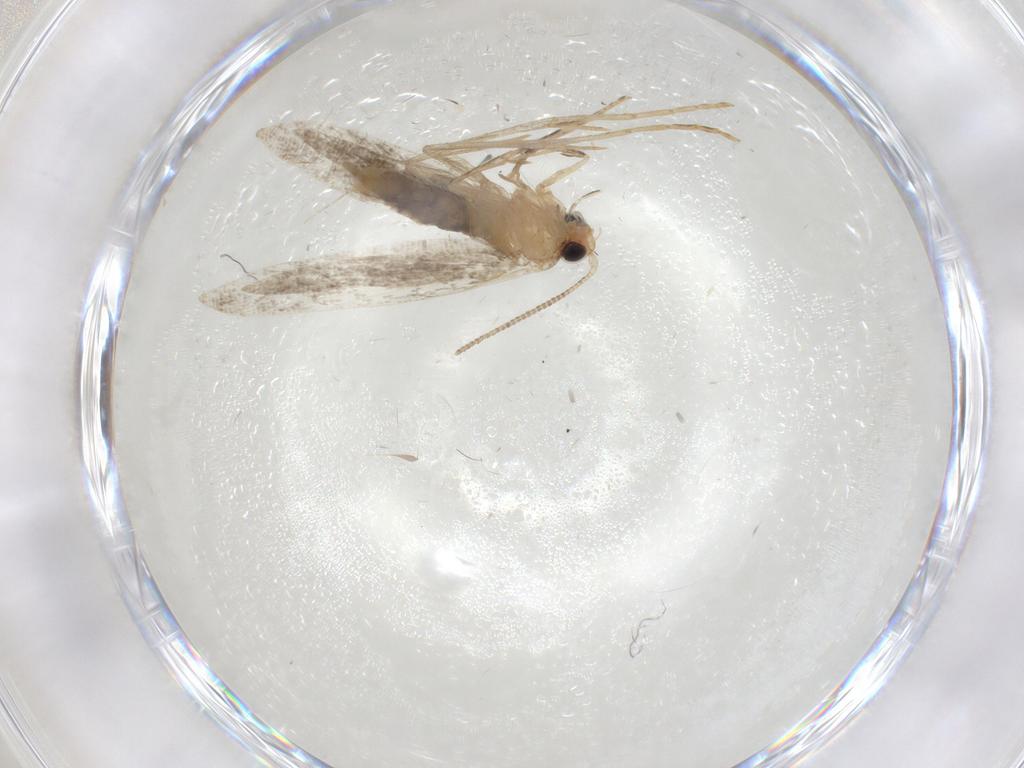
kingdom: Animalia
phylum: Arthropoda
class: Insecta
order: Lepidoptera
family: Tineidae
